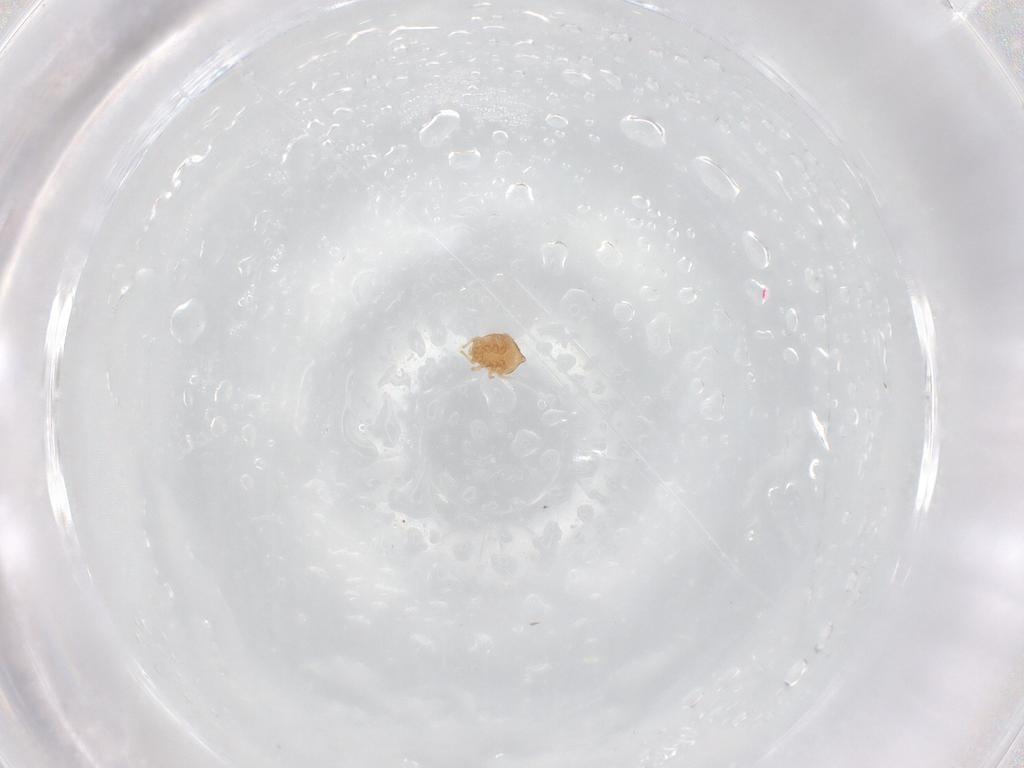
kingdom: Animalia
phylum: Arthropoda
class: Arachnida
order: Mesostigmata
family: Polyaspididae
